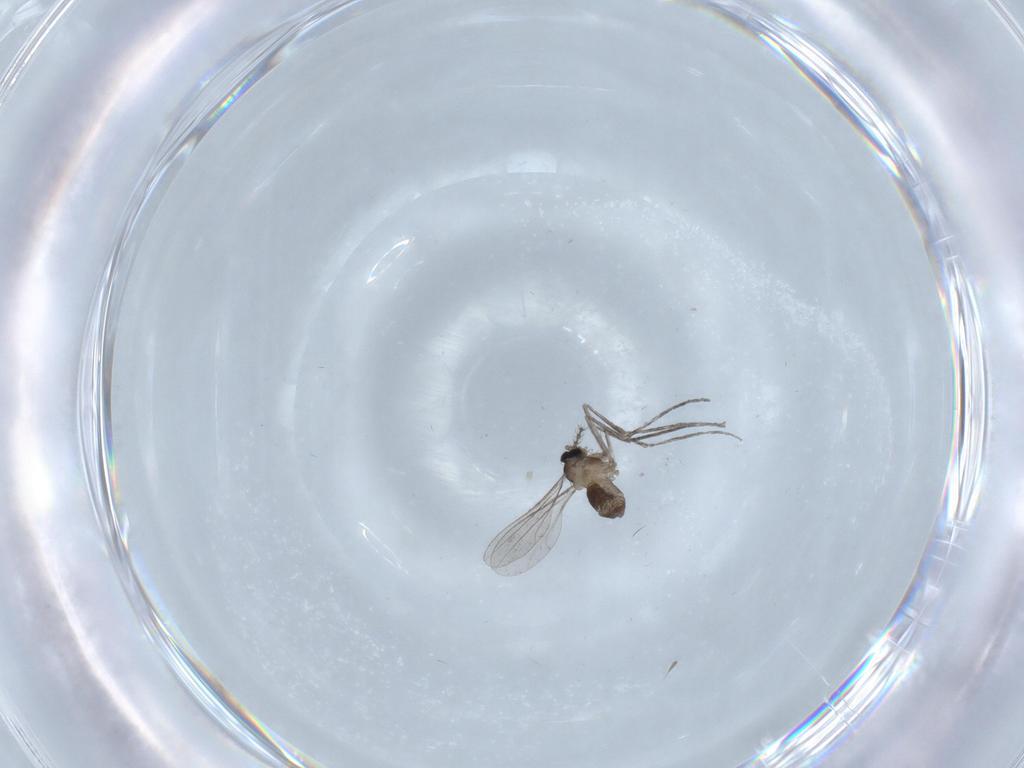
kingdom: Animalia
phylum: Arthropoda
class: Insecta
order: Diptera
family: Cecidomyiidae
